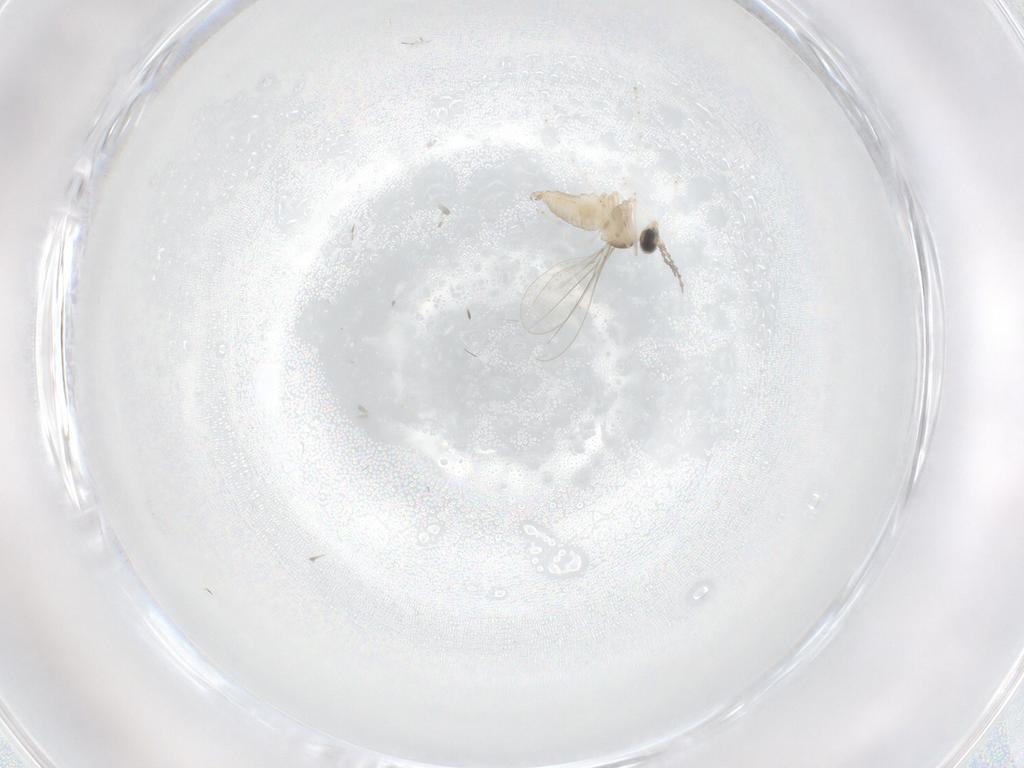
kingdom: Animalia
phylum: Arthropoda
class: Insecta
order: Diptera
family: Cecidomyiidae
